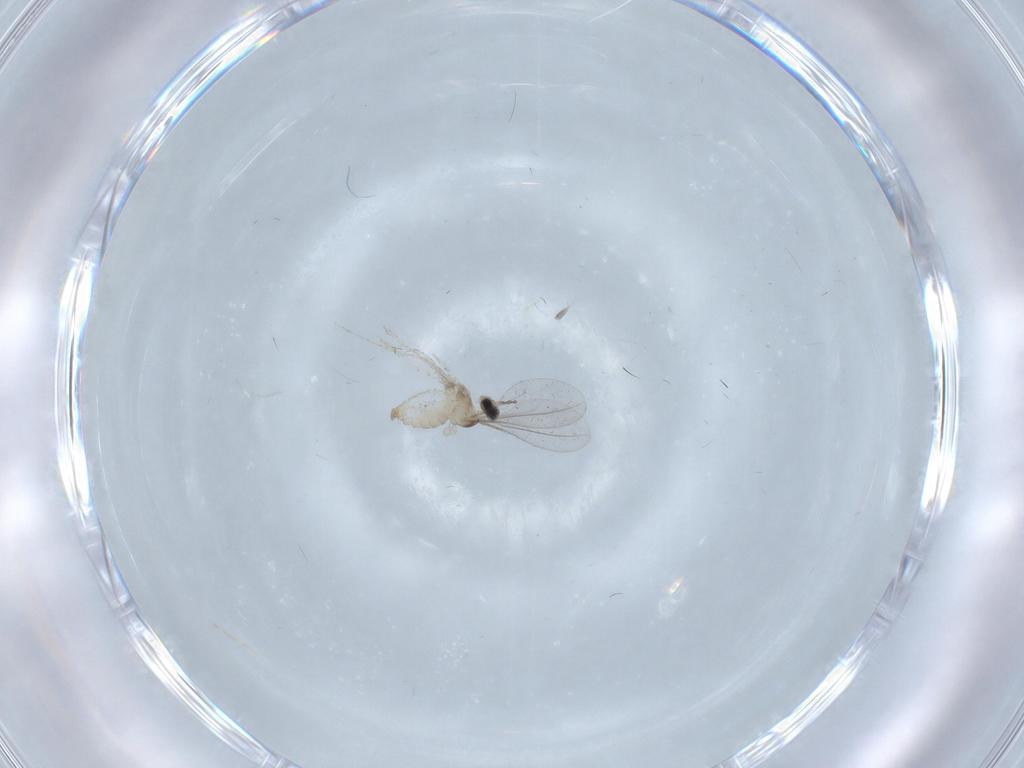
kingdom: Animalia
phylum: Arthropoda
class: Insecta
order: Diptera
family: Cecidomyiidae
